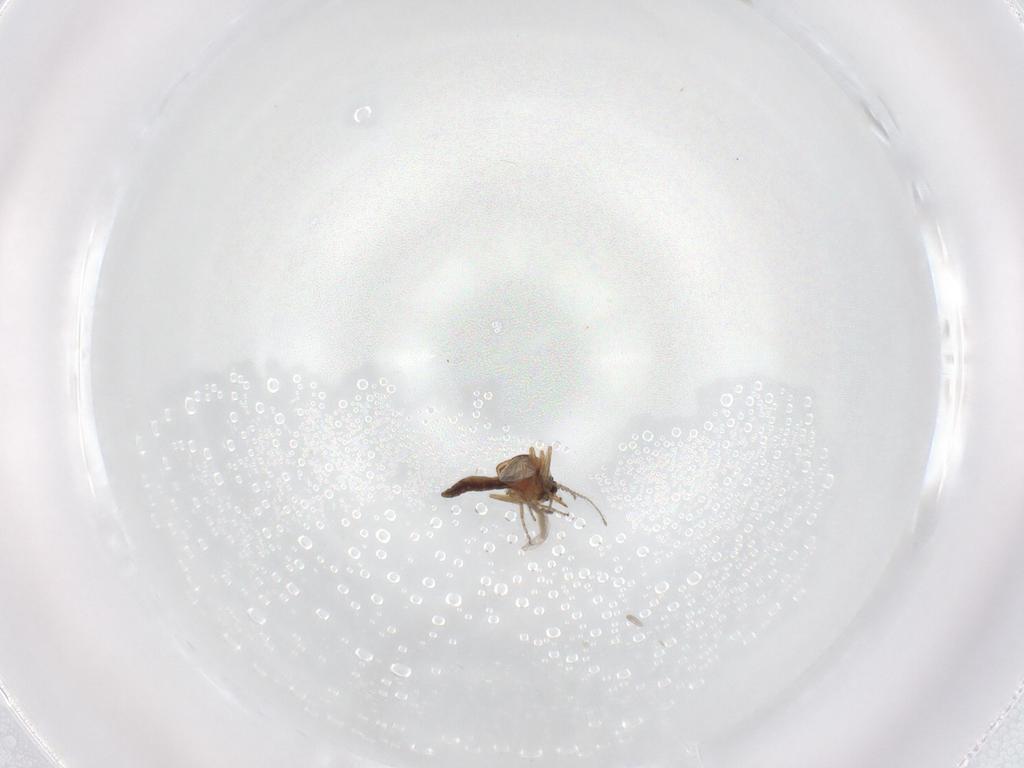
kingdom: Animalia
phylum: Arthropoda
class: Insecta
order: Diptera
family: Ceratopogonidae
